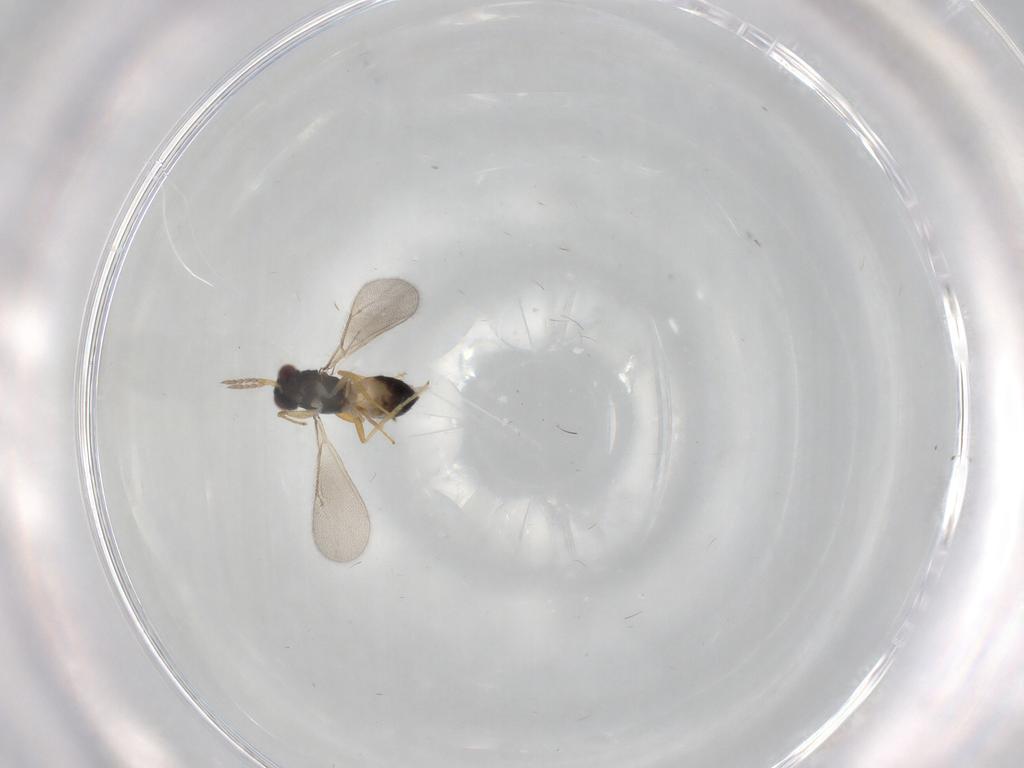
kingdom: Animalia
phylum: Arthropoda
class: Insecta
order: Hymenoptera
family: Eulophidae
